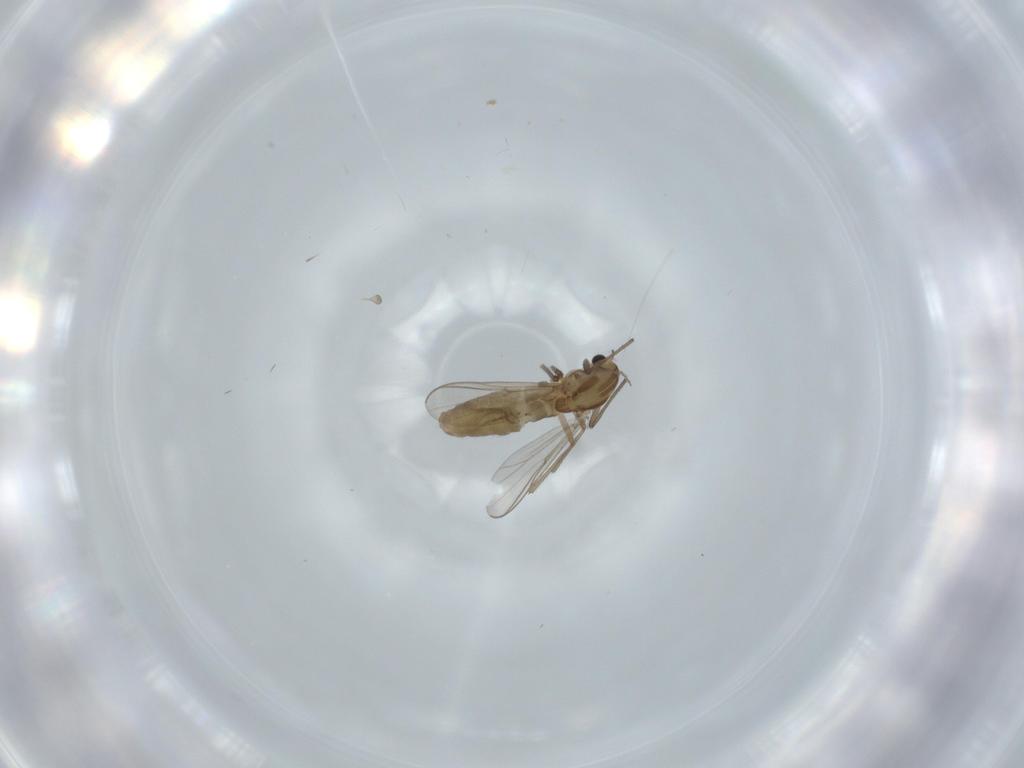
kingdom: Animalia
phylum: Arthropoda
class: Insecta
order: Diptera
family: Chironomidae
